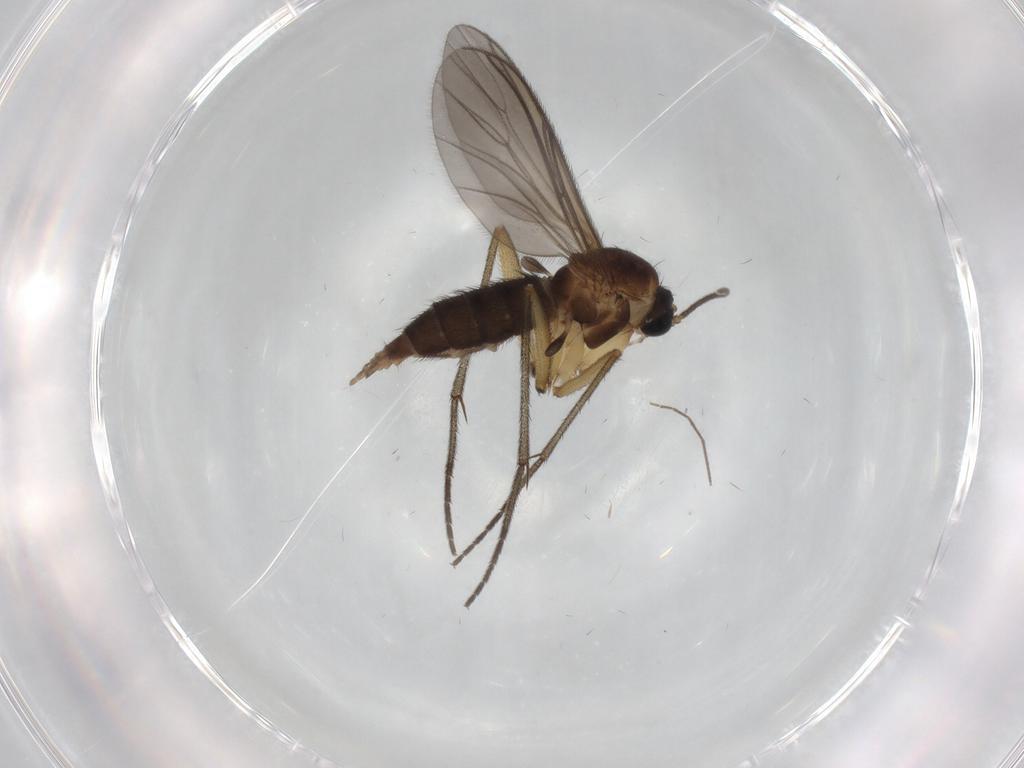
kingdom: Animalia
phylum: Arthropoda
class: Insecta
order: Diptera
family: Sciaridae
